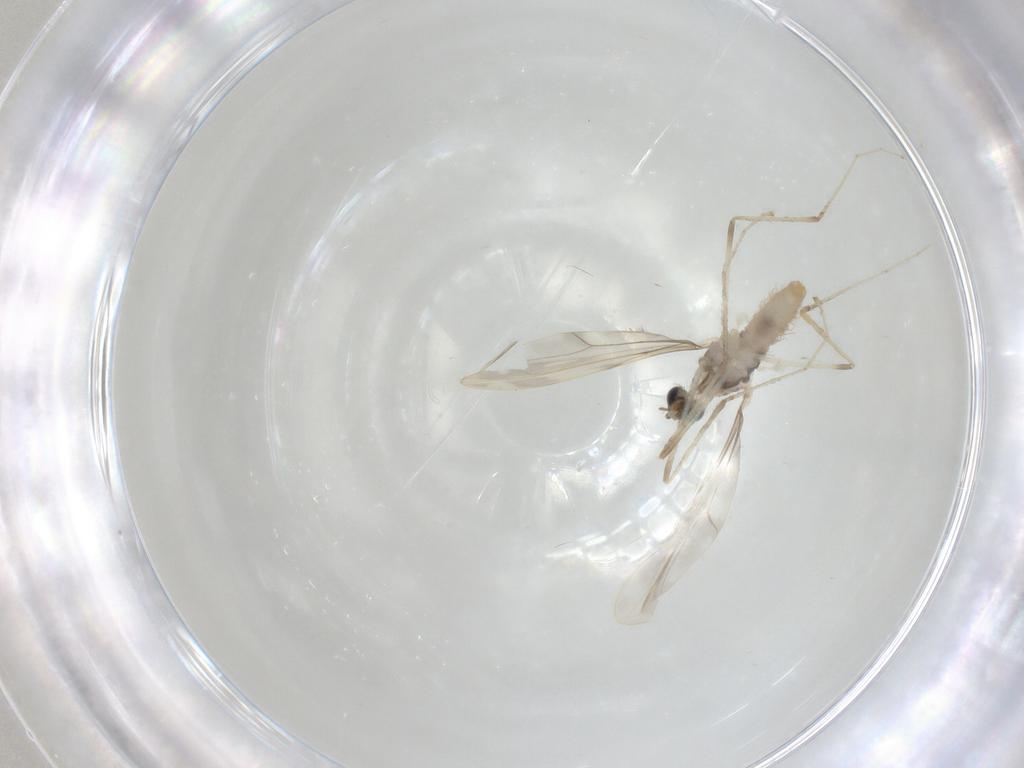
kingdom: Animalia
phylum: Arthropoda
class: Insecta
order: Diptera
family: Cecidomyiidae
